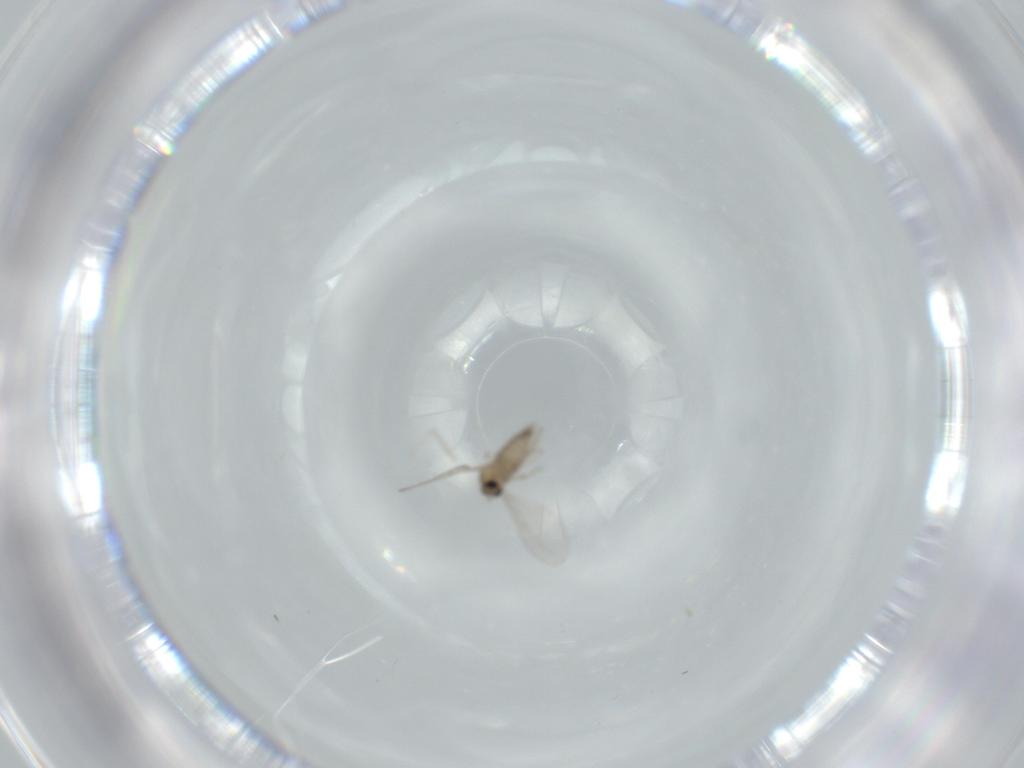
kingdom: Animalia
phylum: Arthropoda
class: Insecta
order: Diptera
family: Cecidomyiidae
